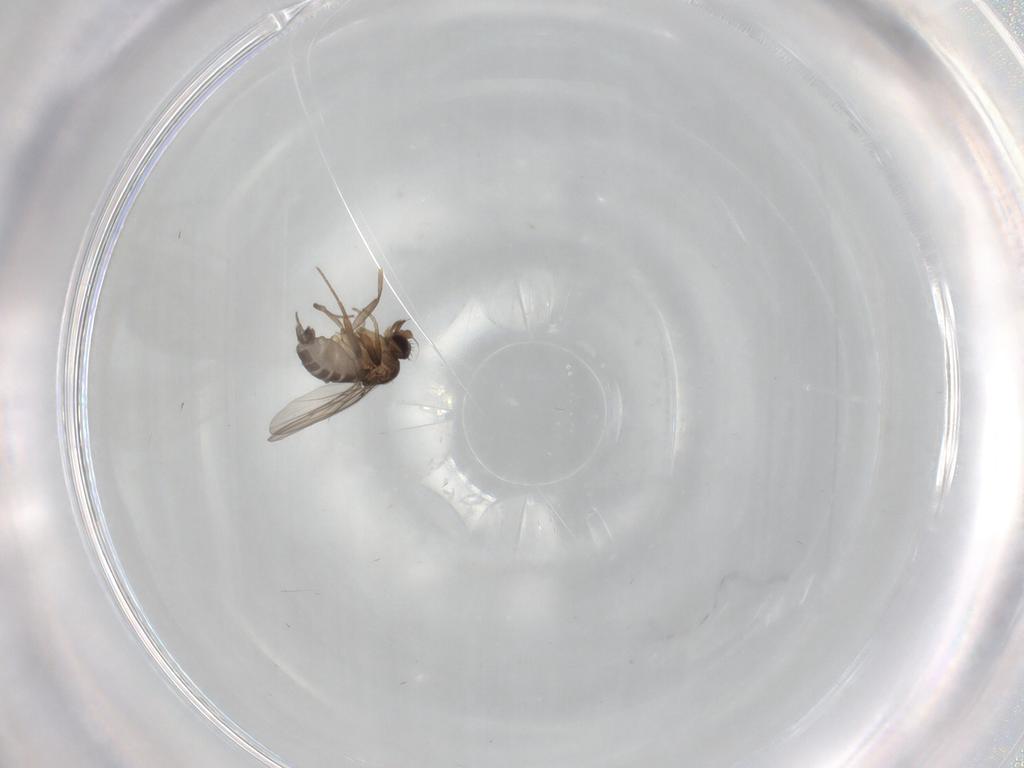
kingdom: Animalia
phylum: Arthropoda
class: Insecta
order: Diptera
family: Phoridae
